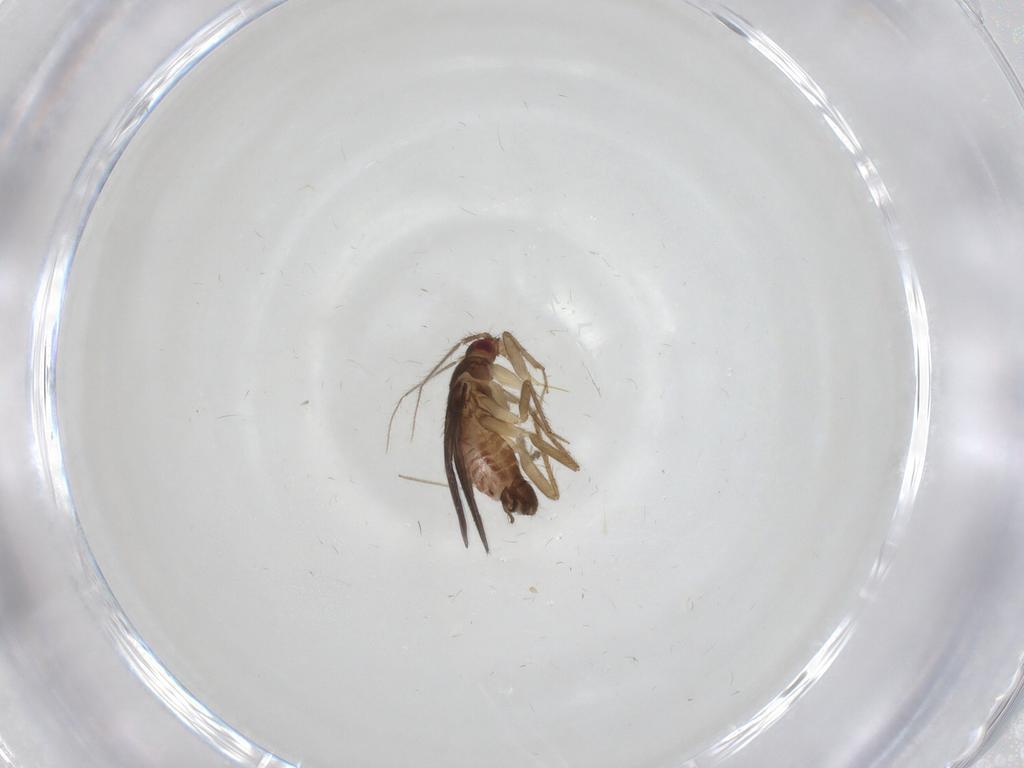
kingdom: Animalia
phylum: Arthropoda
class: Insecta
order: Hemiptera
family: Ceratocombidae
